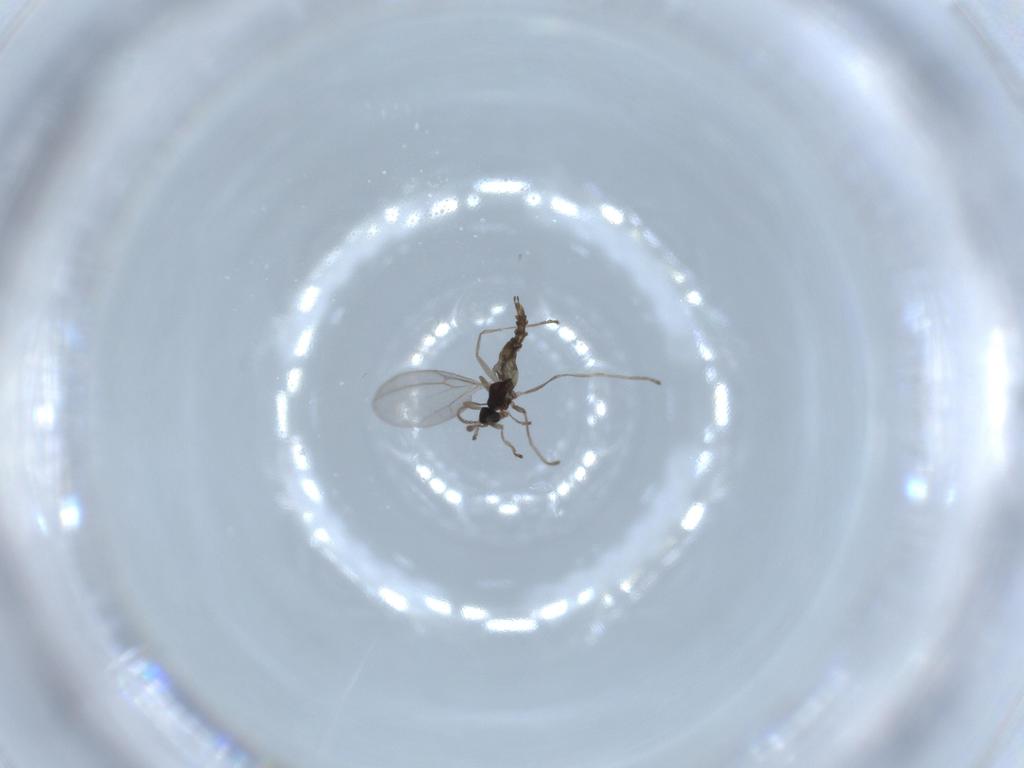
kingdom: Animalia
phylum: Arthropoda
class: Insecta
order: Diptera
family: Cecidomyiidae
